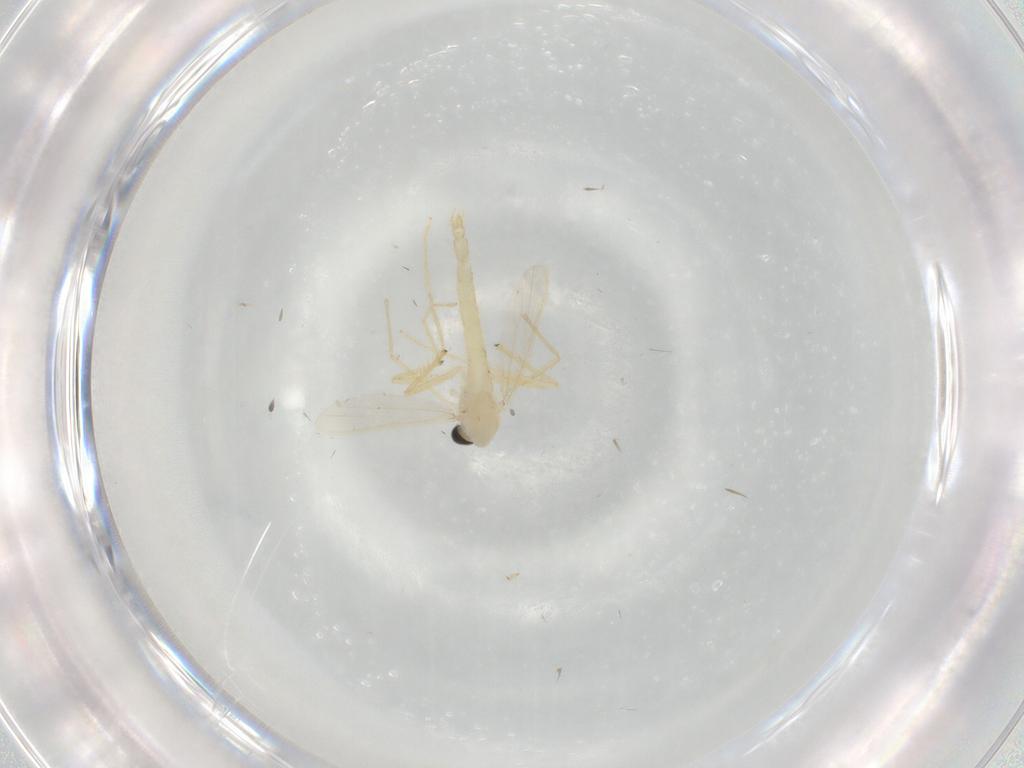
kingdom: Animalia
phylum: Arthropoda
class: Insecta
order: Diptera
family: Chironomidae
